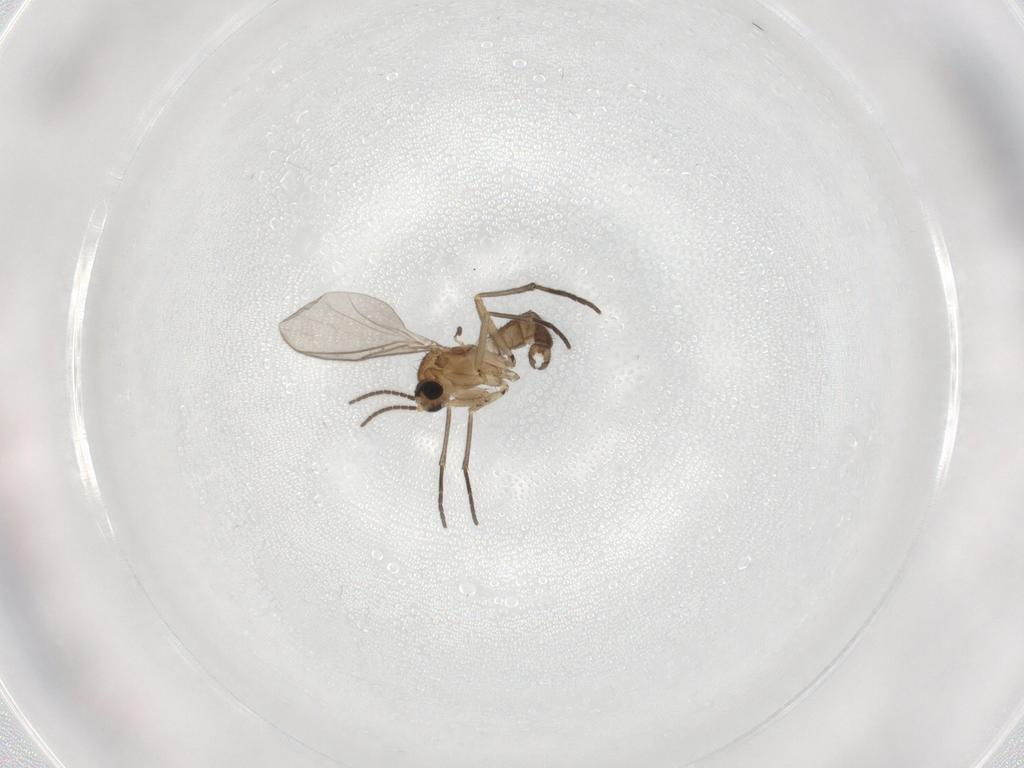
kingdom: Animalia
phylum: Arthropoda
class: Insecta
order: Diptera
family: Sciaridae
